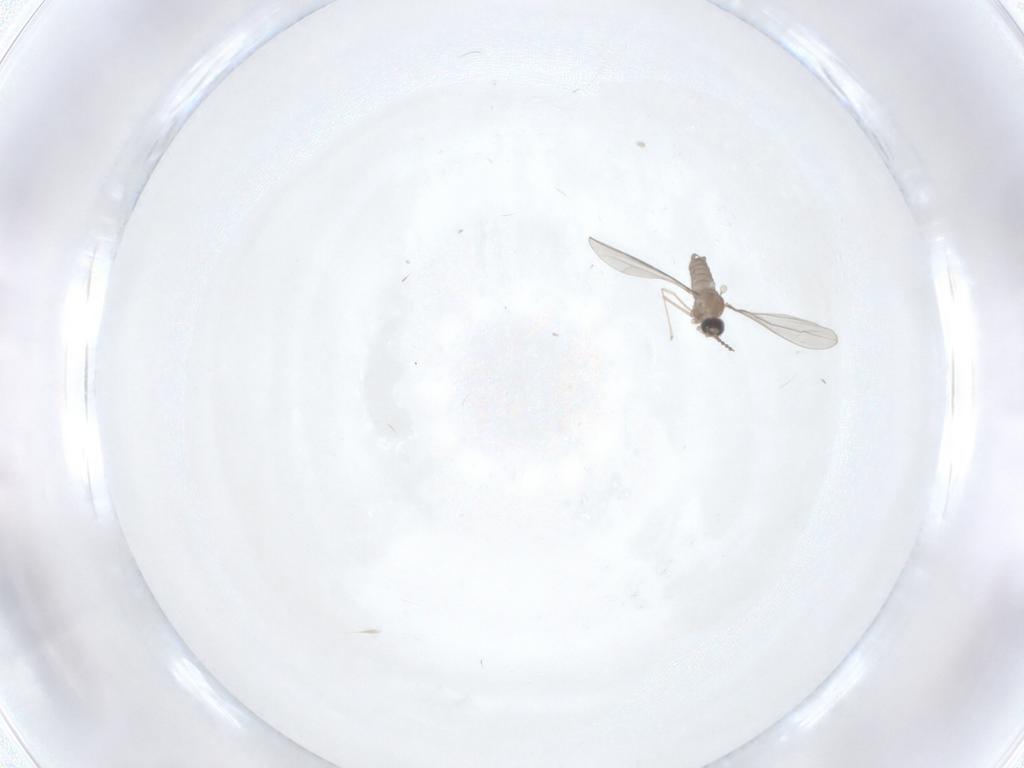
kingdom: Animalia
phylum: Arthropoda
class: Insecta
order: Diptera
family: Cecidomyiidae
